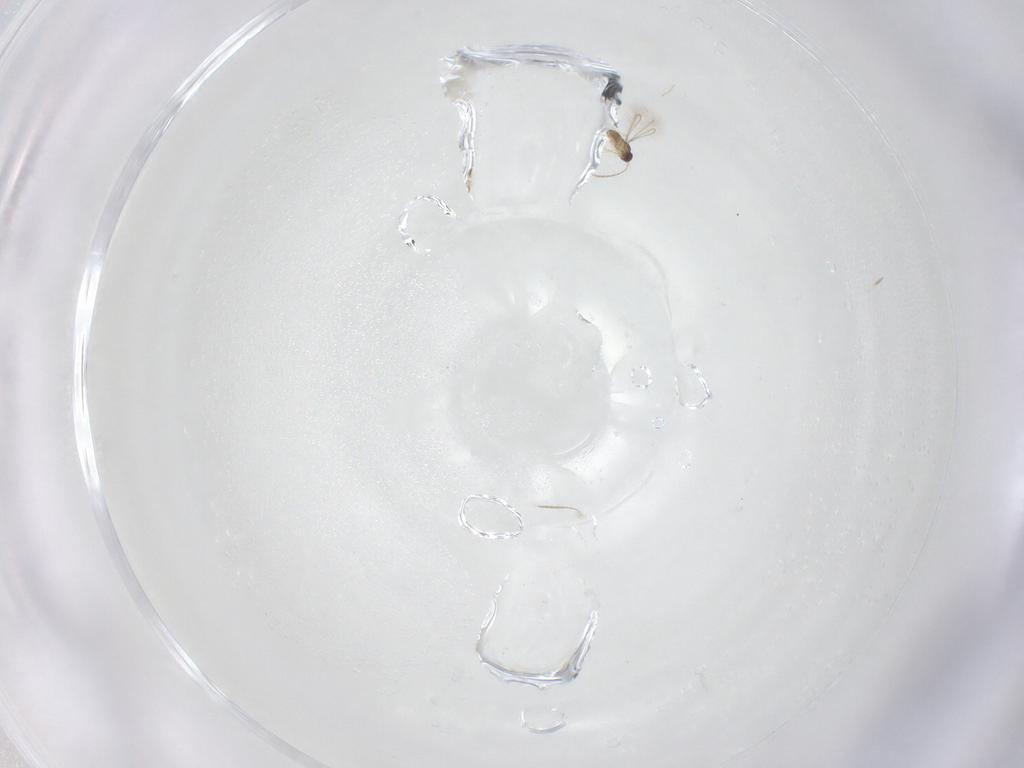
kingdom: Animalia
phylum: Arthropoda
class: Insecta
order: Hymenoptera
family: Mymaridae
